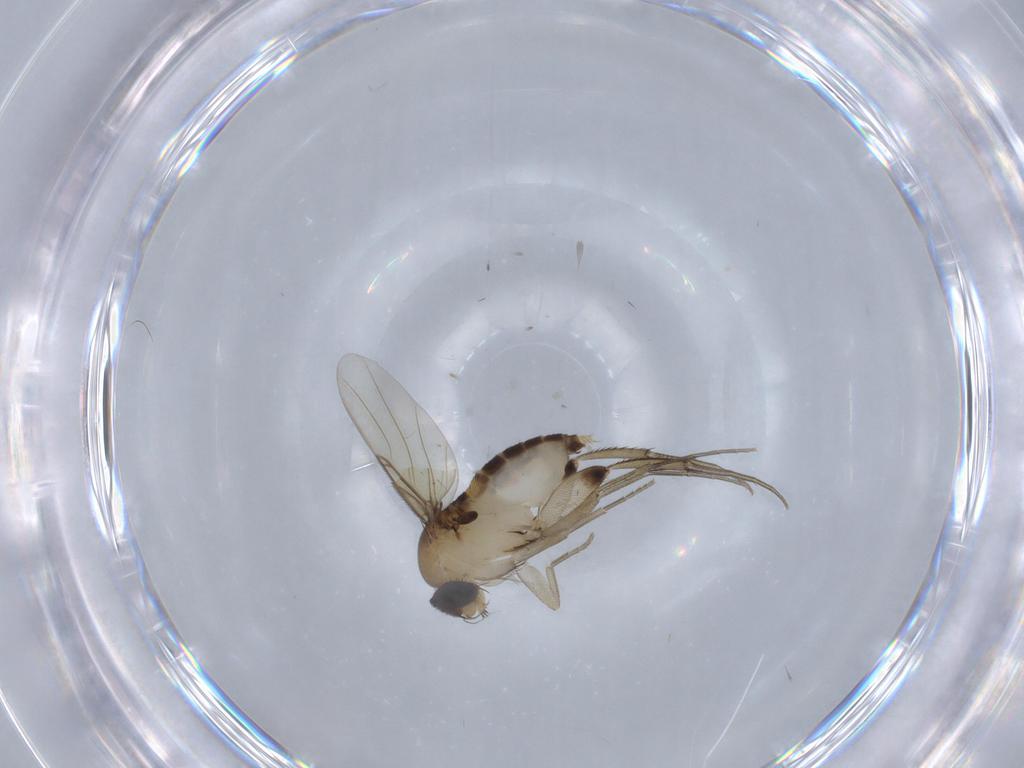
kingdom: Animalia
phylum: Arthropoda
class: Insecta
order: Diptera
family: Phoridae
